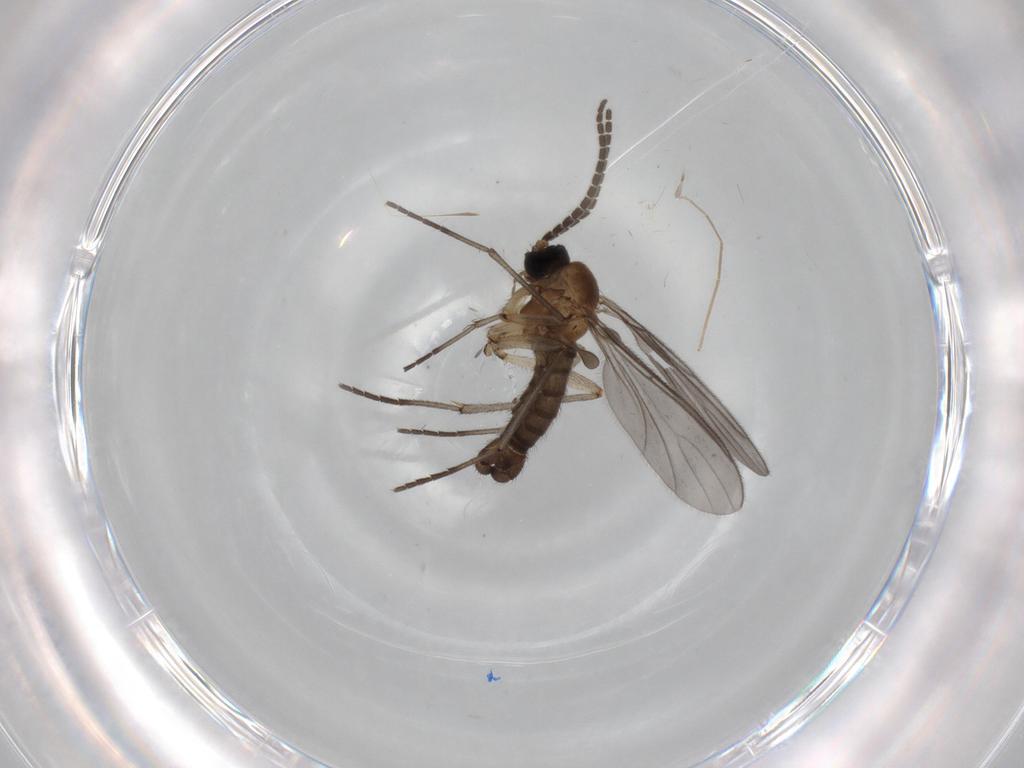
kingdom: Animalia
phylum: Arthropoda
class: Insecta
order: Diptera
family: Sciaridae
